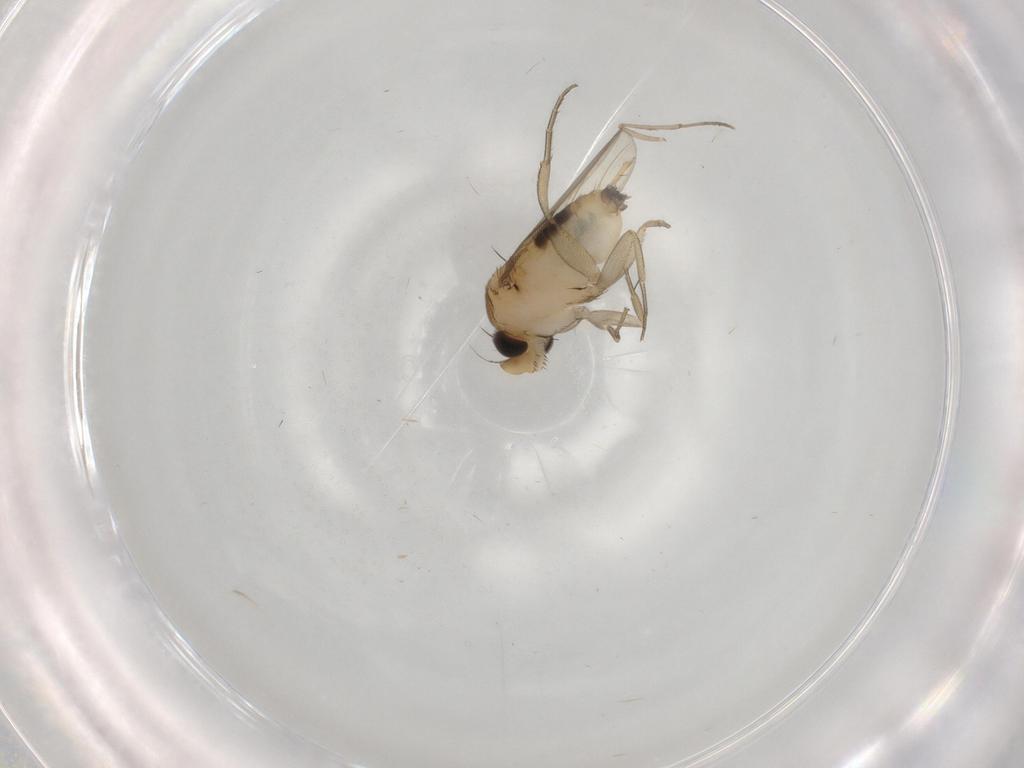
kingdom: Animalia
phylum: Arthropoda
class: Insecta
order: Diptera
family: Phoridae
